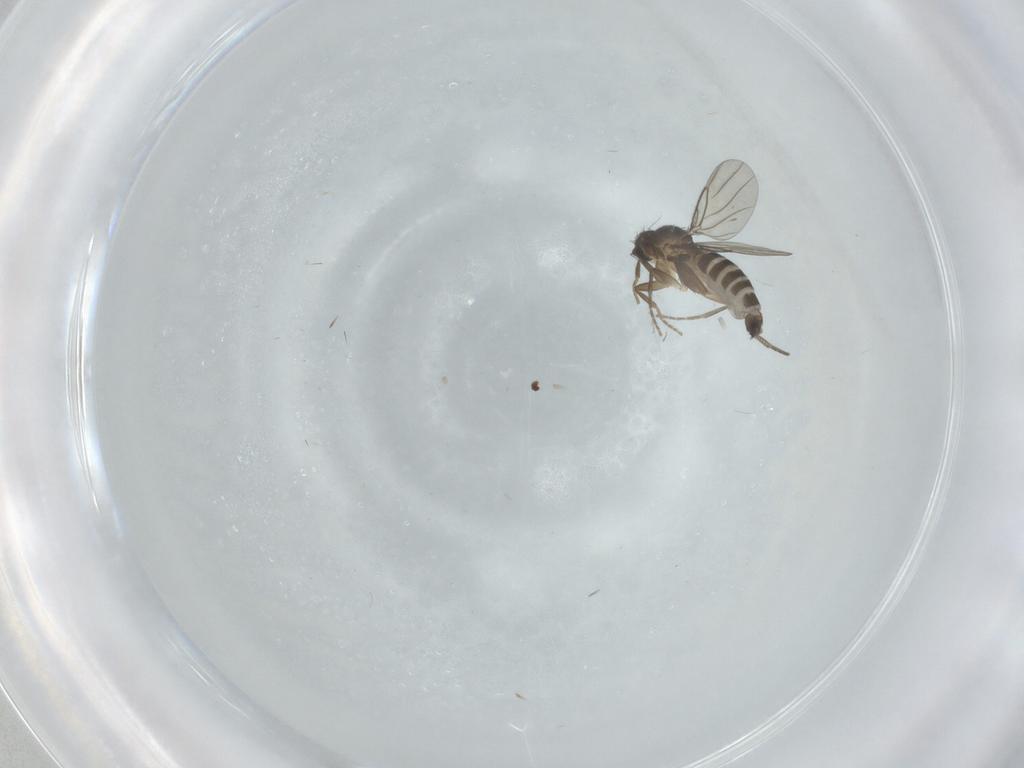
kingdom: Animalia
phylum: Arthropoda
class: Insecta
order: Diptera
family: Phoridae
